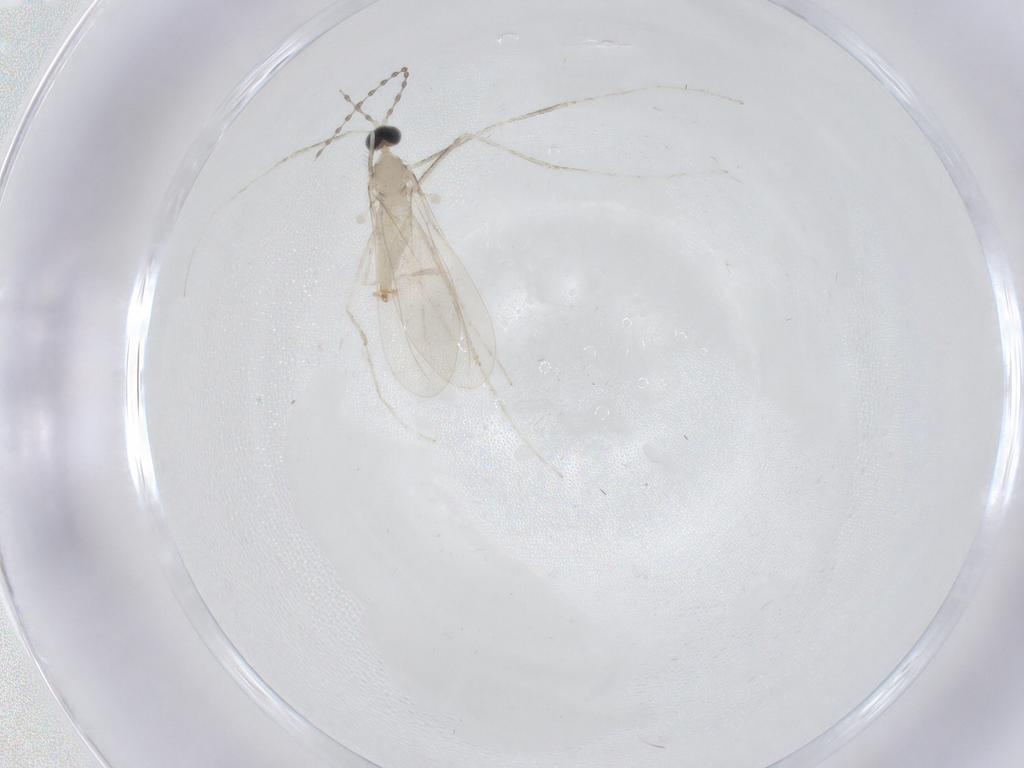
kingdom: Animalia
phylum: Arthropoda
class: Insecta
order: Diptera
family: Cecidomyiidae
